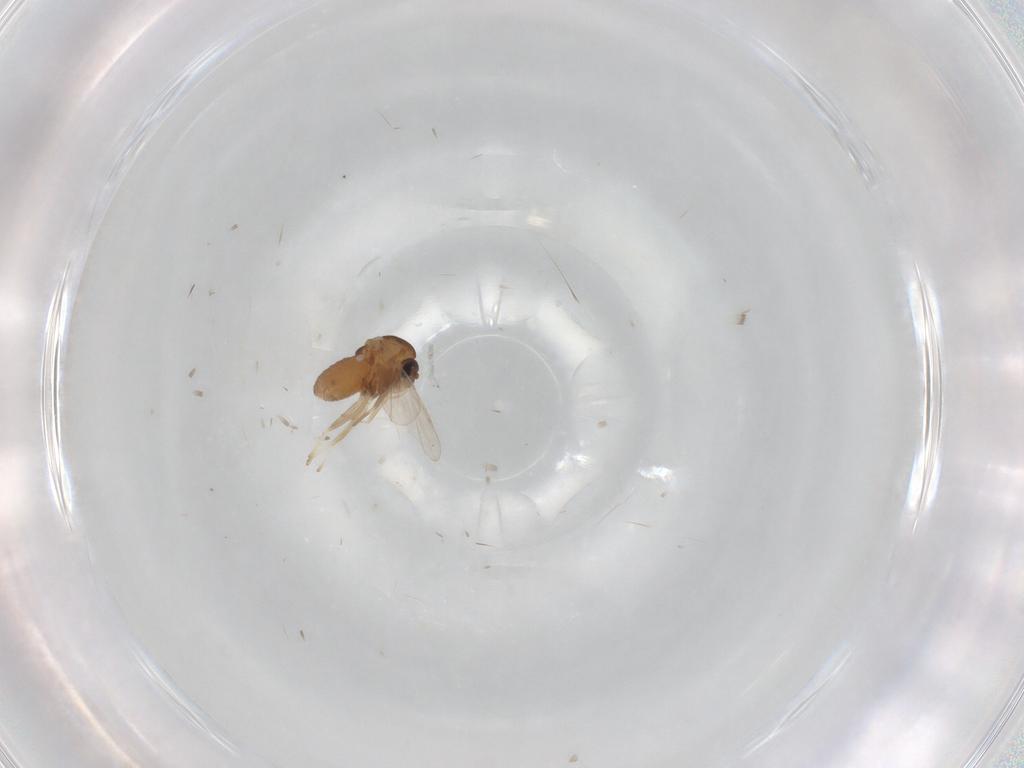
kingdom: Animalia
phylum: Arthropoda
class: Insecta
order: Diptera
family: Chironomidae
